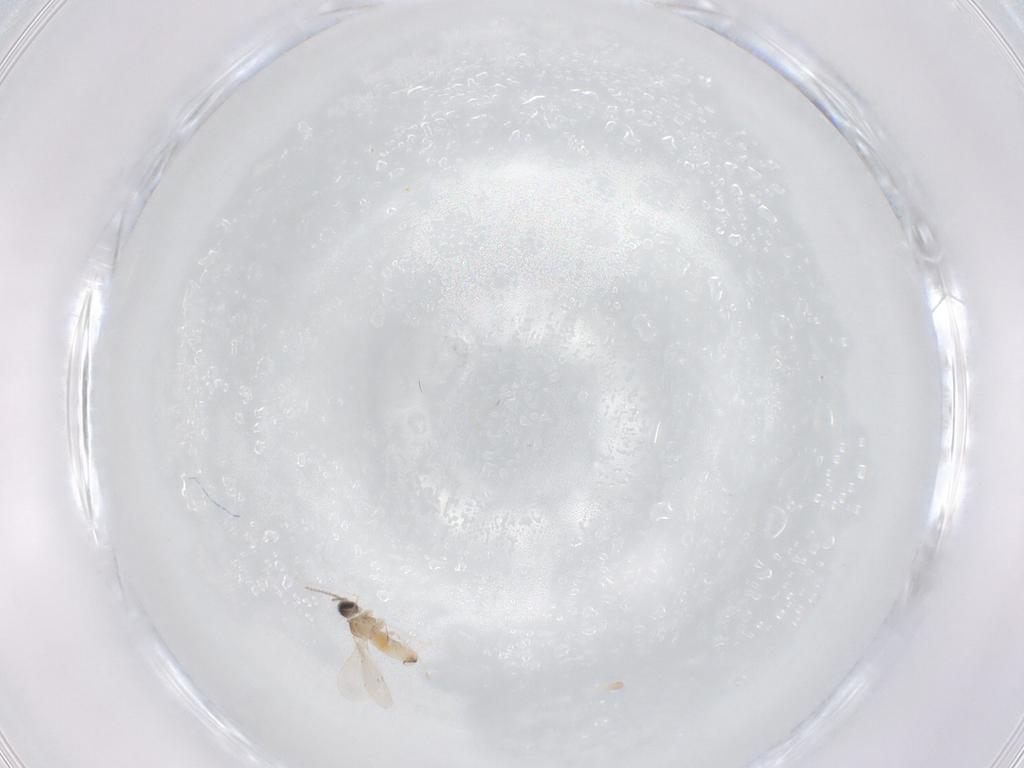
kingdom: Animalia
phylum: Arthropoda
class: Insecta
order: Diptera
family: Cecidomyiidae
